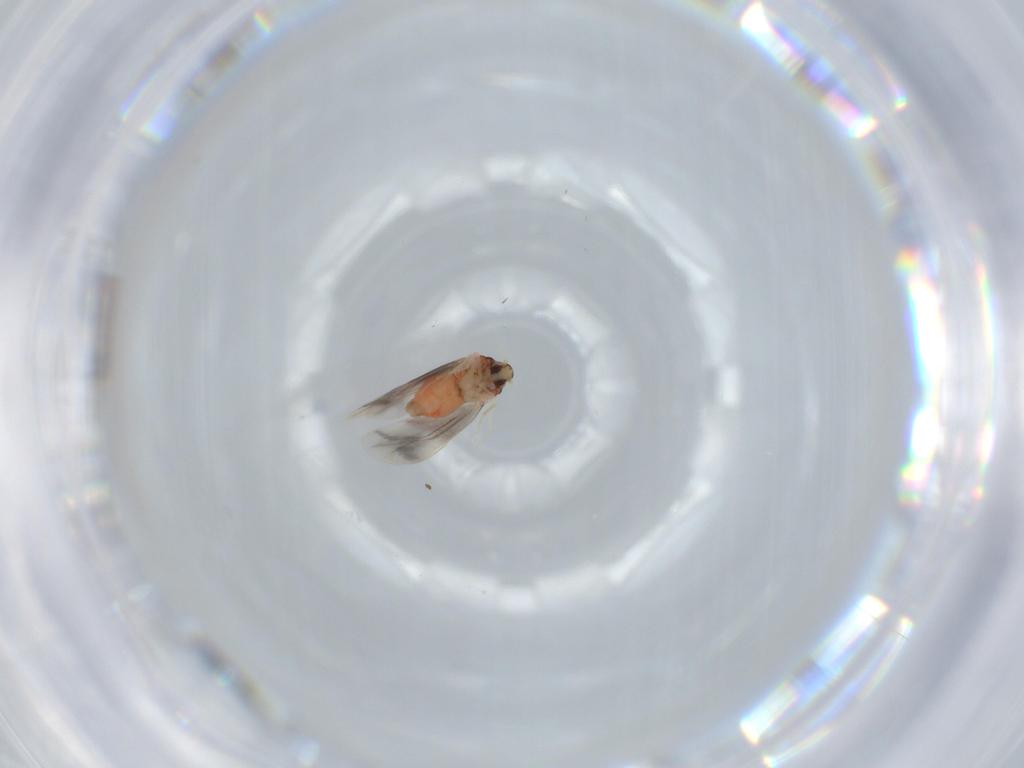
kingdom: Animalia
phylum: Arthropoda
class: Insecta
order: Hemiptera
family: Aleyrodidae
